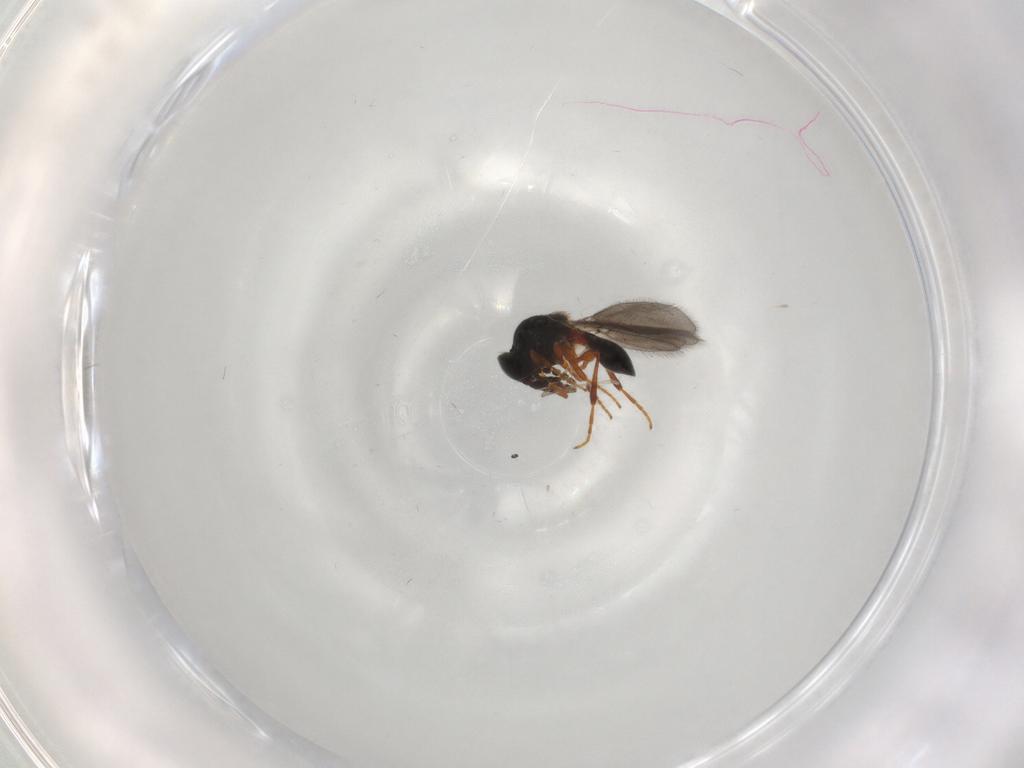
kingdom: Animalia
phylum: Arthropoda
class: Insecta
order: Hymenoptera
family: Platygastridae
